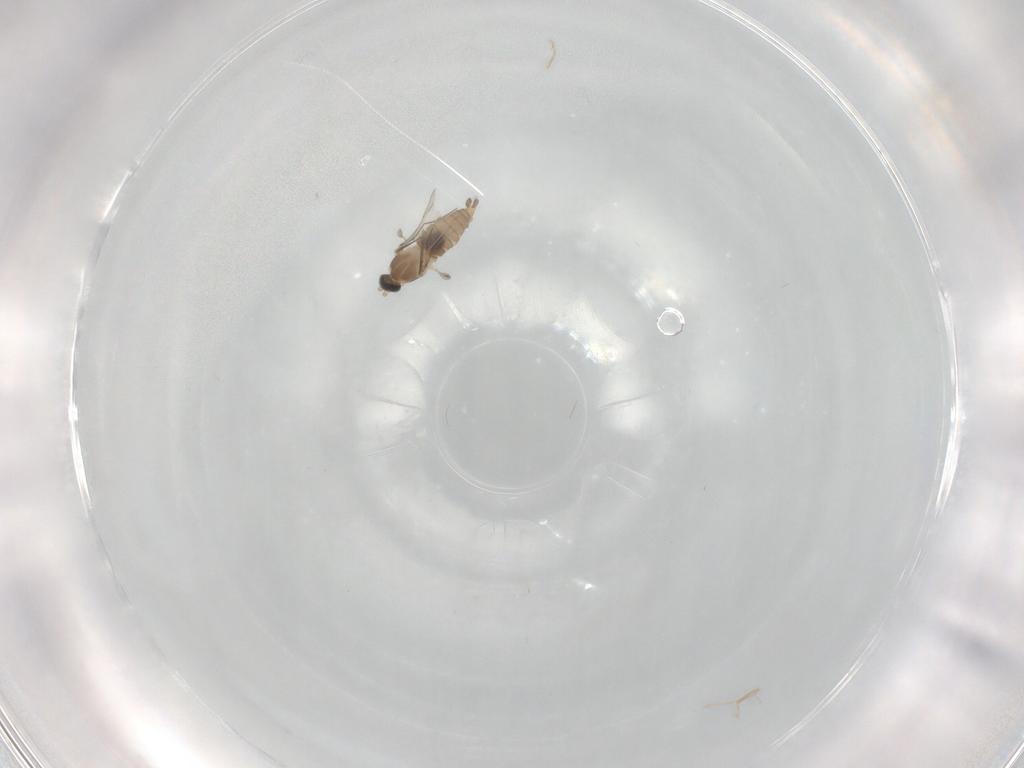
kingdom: Animalia
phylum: Arthropoda
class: Insecta
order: Diptera
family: Cecidomyiidae
